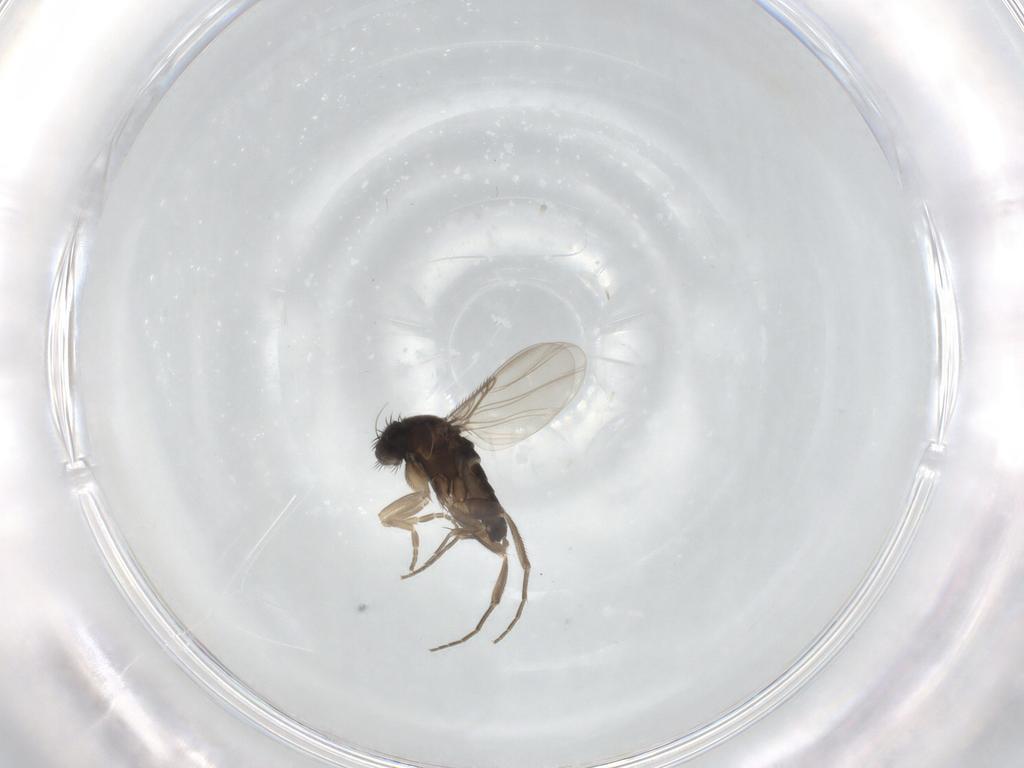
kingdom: Animalia
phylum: Arthropoda
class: Insecta
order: Diptera
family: Phoridae
